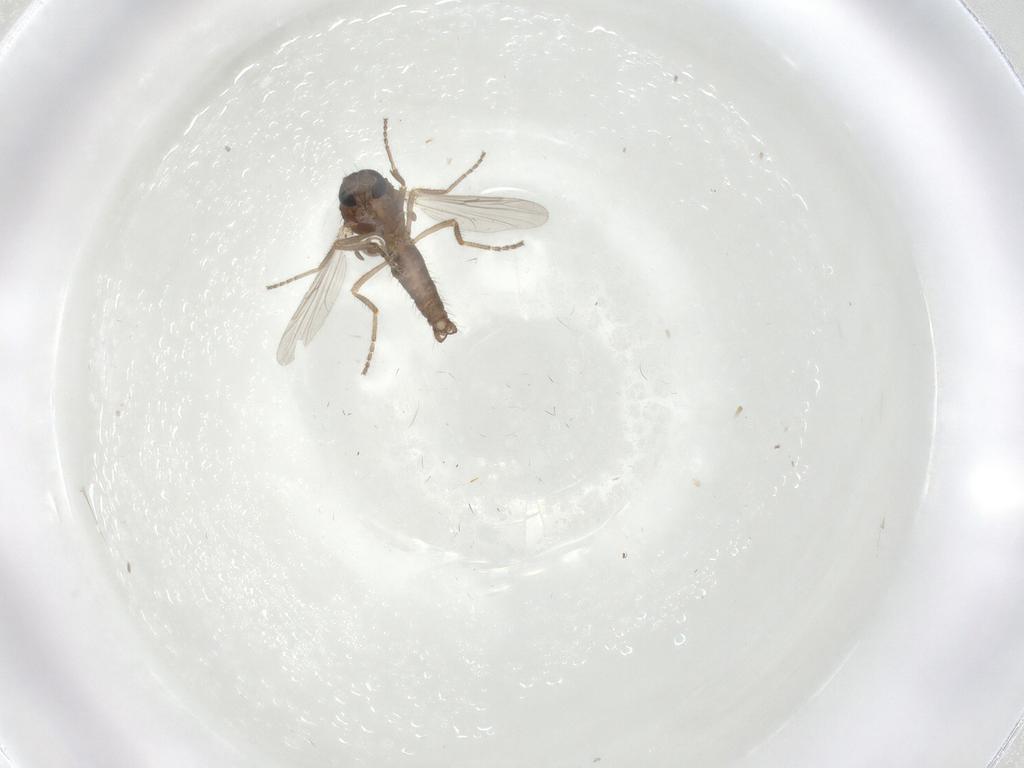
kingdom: Animalia
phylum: Arthropoda
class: Insecta
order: Diptera
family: Ceratopogonidae
